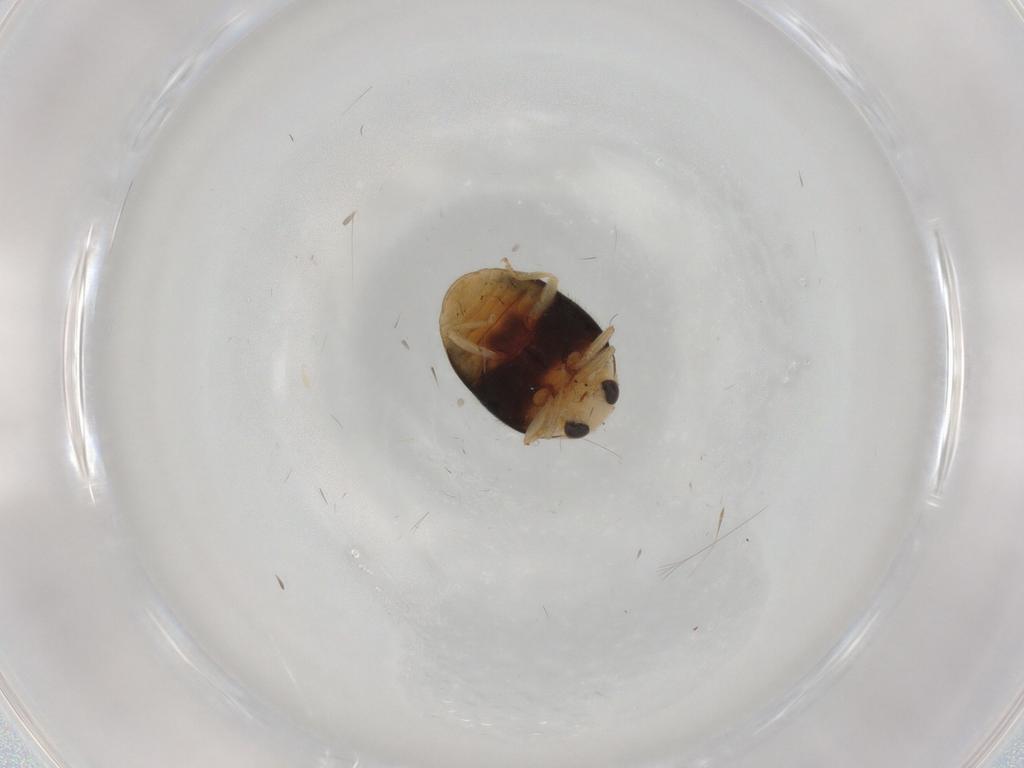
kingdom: Animalia
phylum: Arthropoda
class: Insecta
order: Coleoptera
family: Coccinellidae
